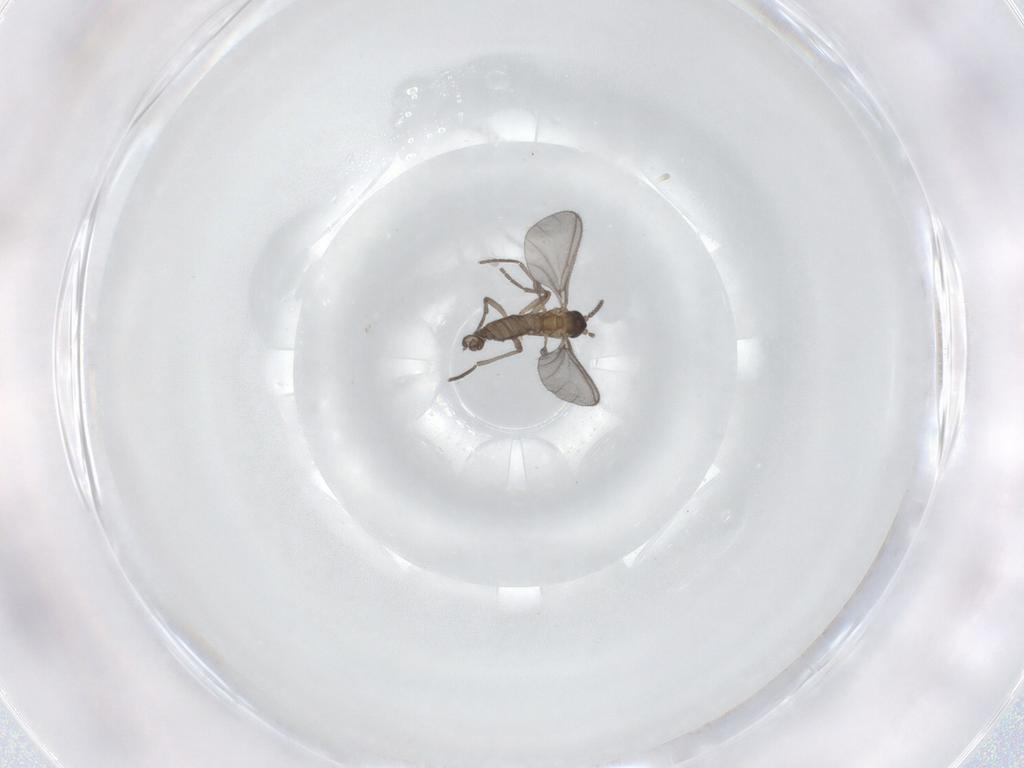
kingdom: Animalia
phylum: Arthropoda
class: Insecta
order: Diptera
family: Sciaridae
